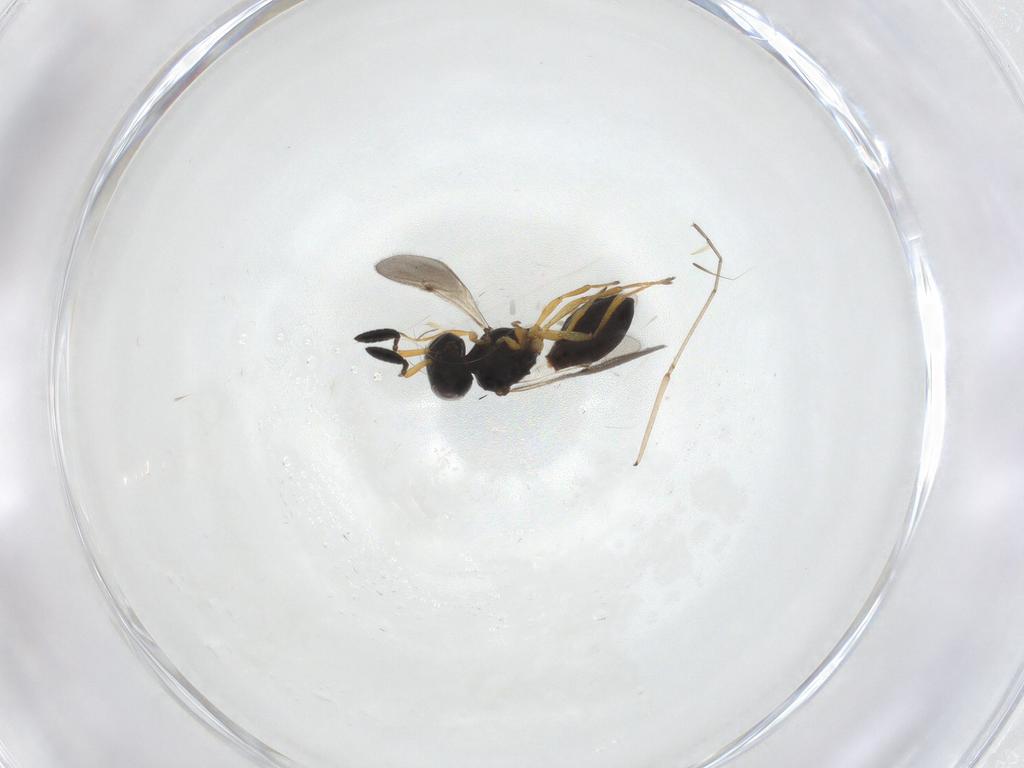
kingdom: Animalia
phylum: Arthropoda
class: Insecta
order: Hymenoptera
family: Scelionidae
